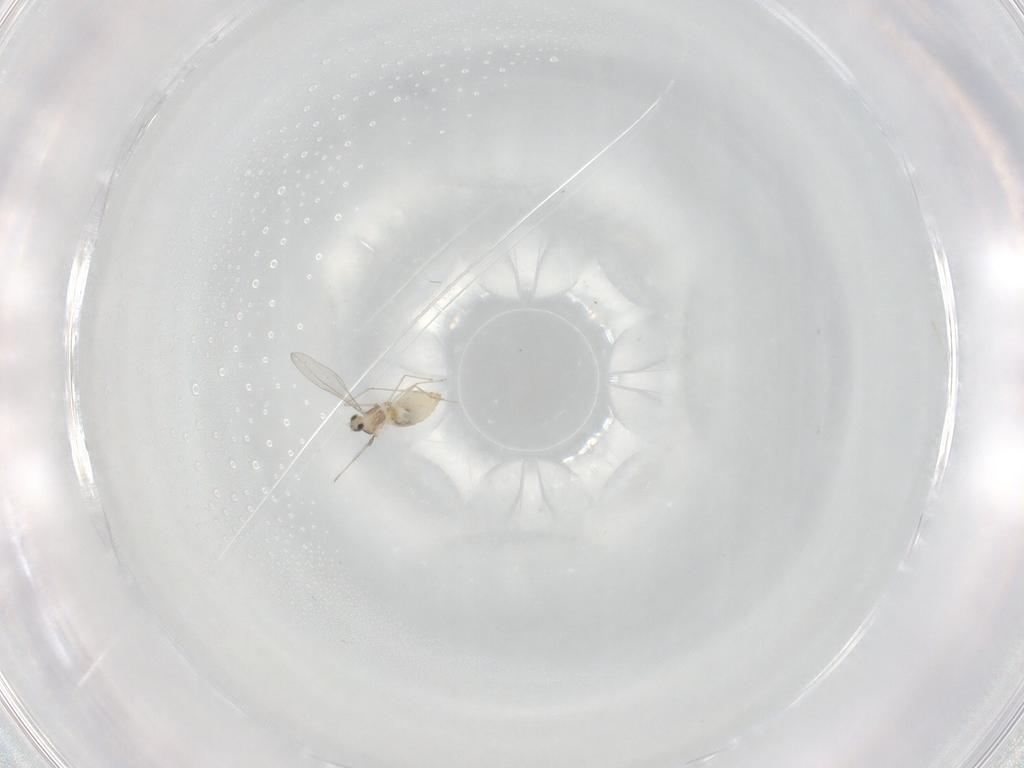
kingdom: Animalia
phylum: Arthropoda
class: Insecta
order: Diptera
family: Cecidomyiidae
